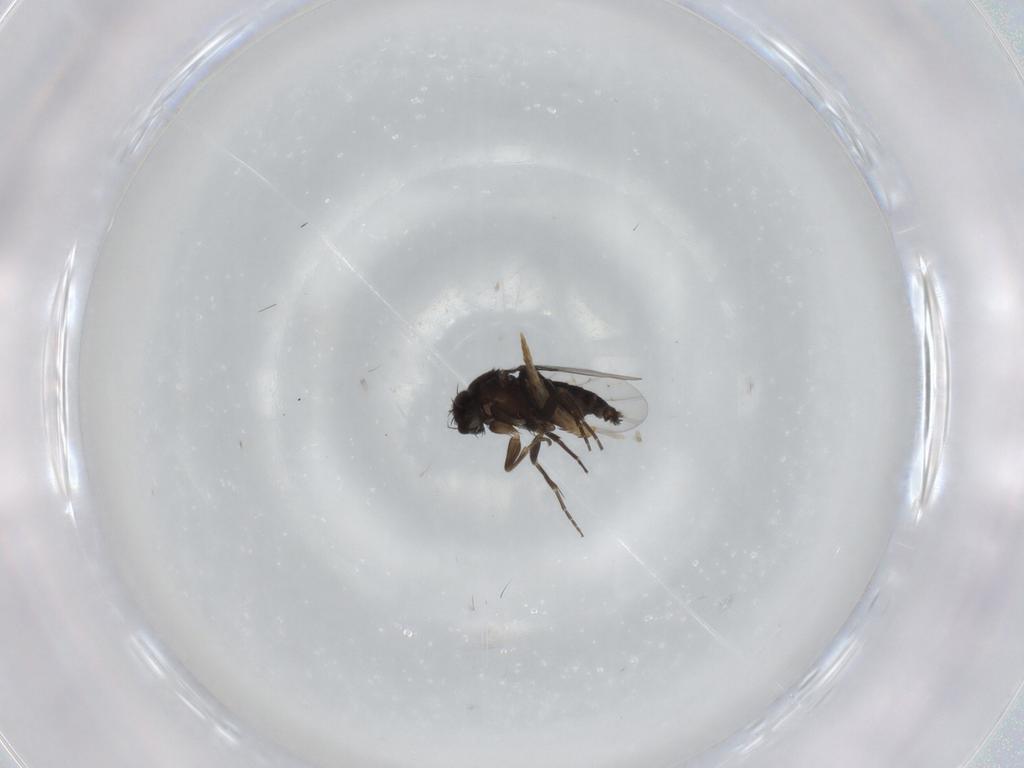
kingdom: Animalia
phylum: Arthropoda
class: Insecta
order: Diptera
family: Phoridae
